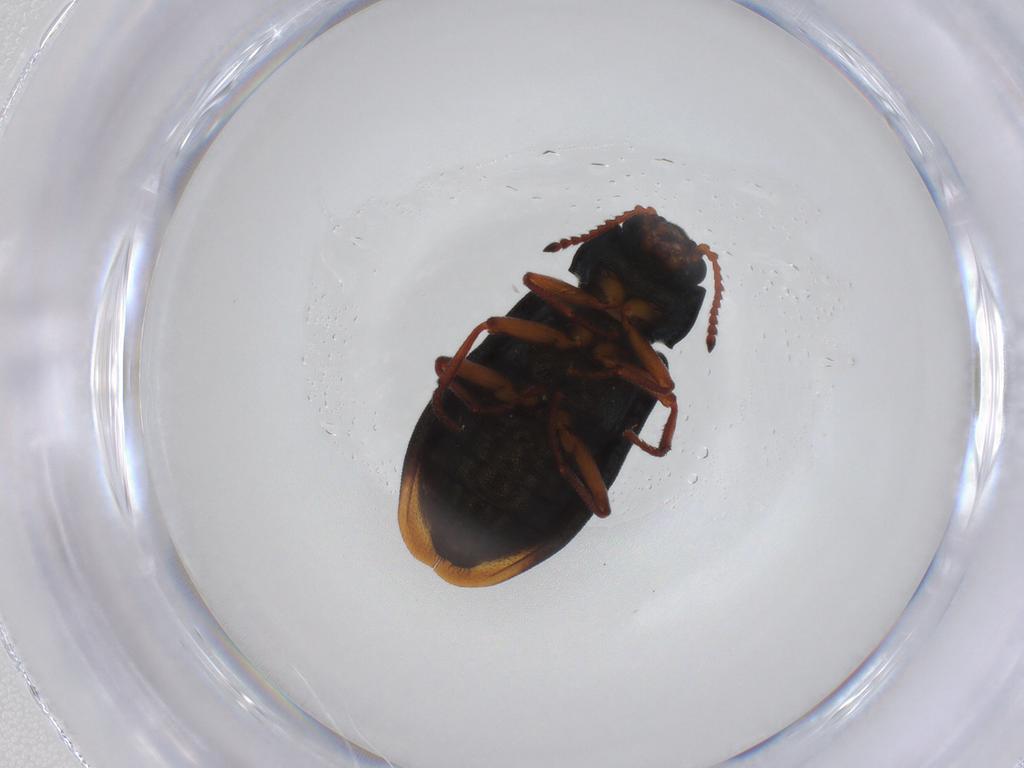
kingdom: Animalia
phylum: Arthropoda
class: Insecta
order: Coleoptera
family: Melyridae
